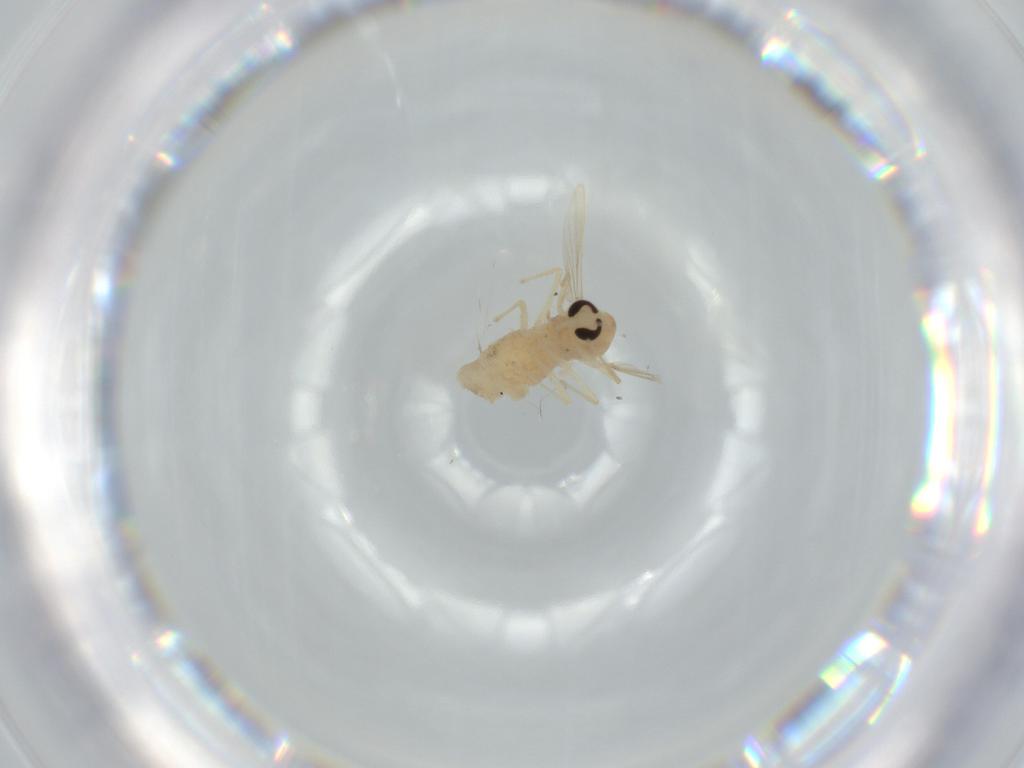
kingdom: Animalia
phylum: Arthropoda
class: Insecta
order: Diptera
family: Chironomidae
